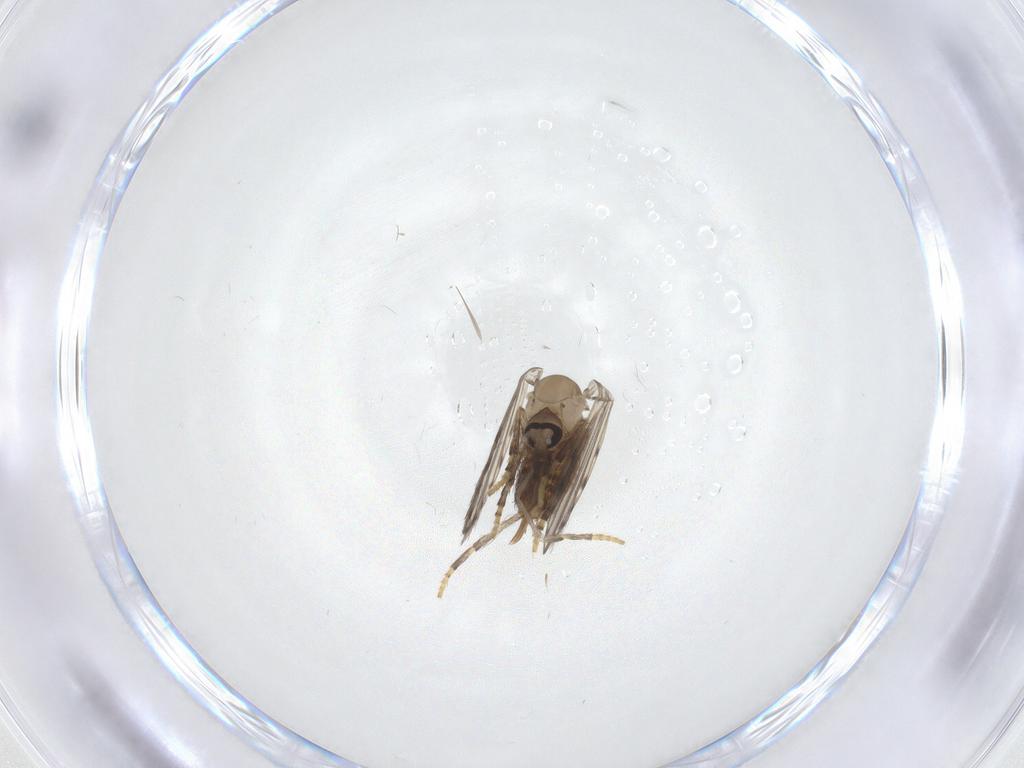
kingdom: Animalia
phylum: Arthropoda
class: Insecta
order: Diptera
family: Psychodidae
